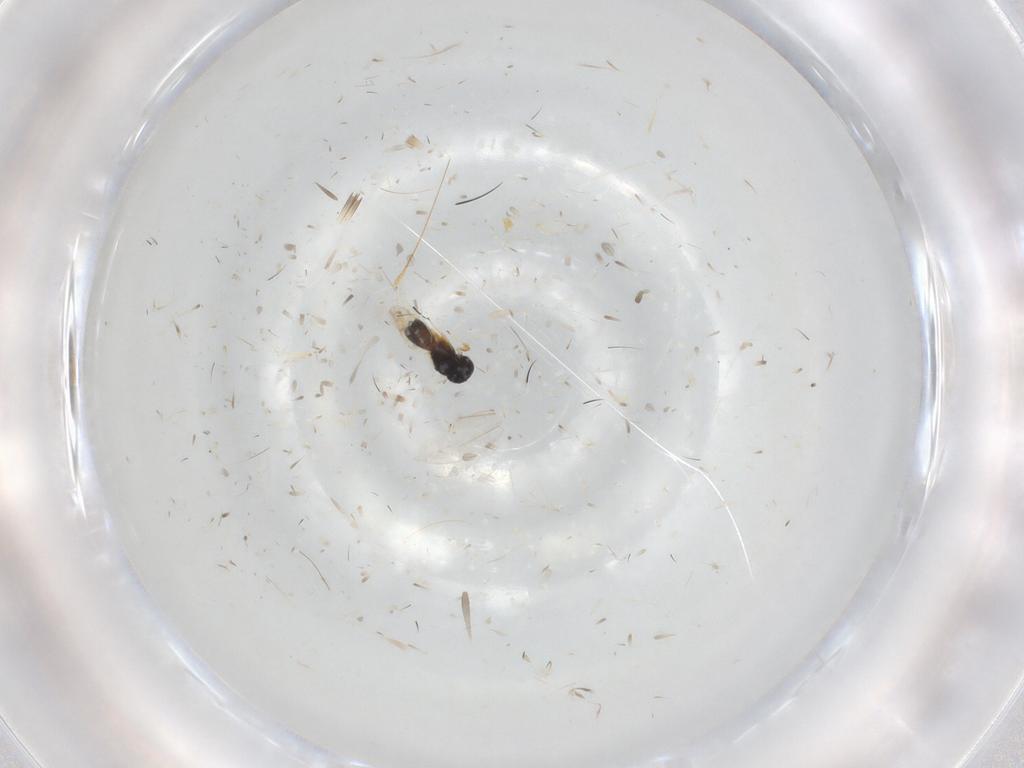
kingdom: Animalia
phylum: Arthropoda
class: Insecta
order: Hymenoptera
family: Scelionidae
